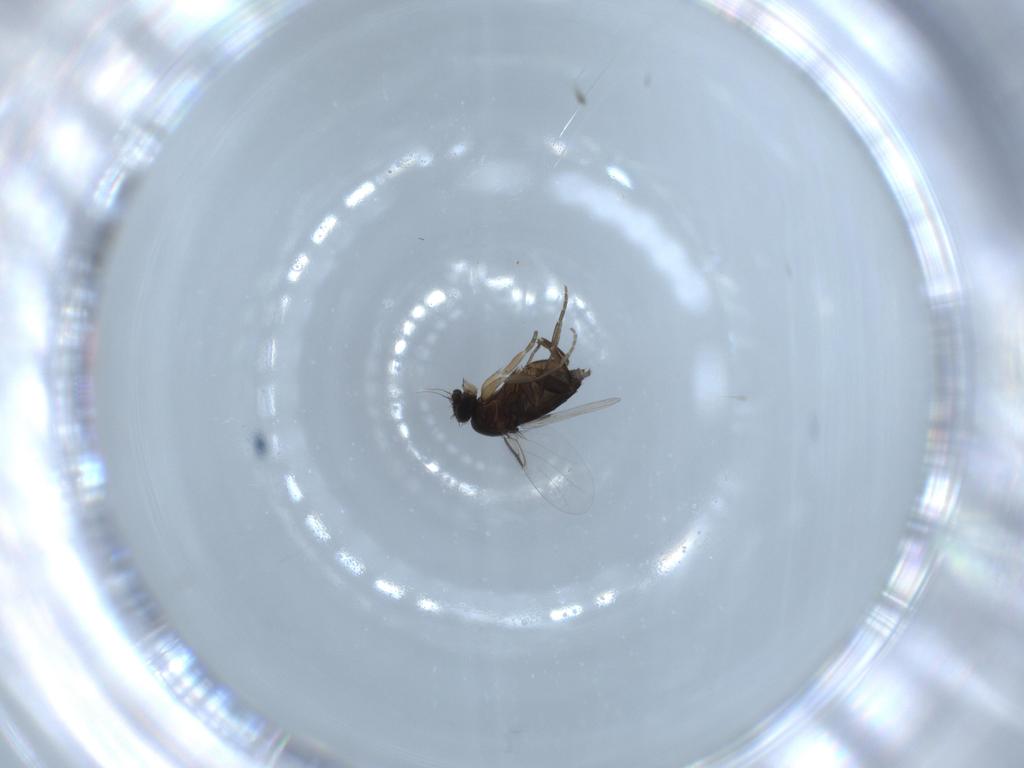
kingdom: Animalia
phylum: Arthropoda
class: Insecta
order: Diptera
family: Phoridae
